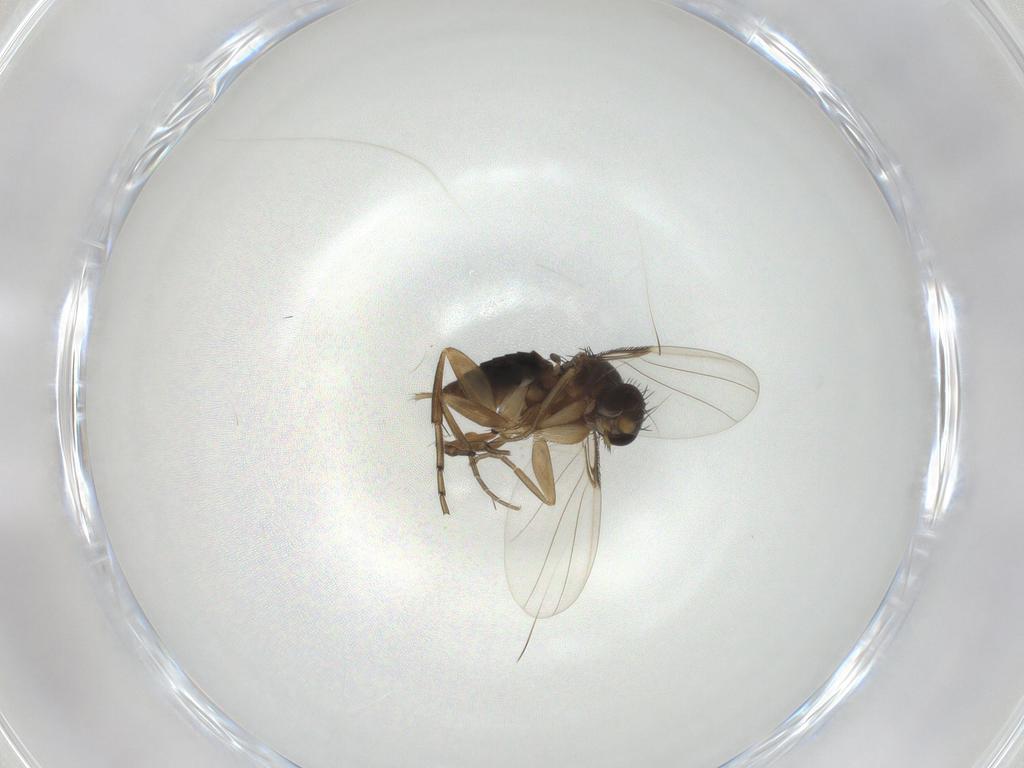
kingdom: Animalia
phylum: Arthropoda
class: Insecta
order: Diptera
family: Phoridae
